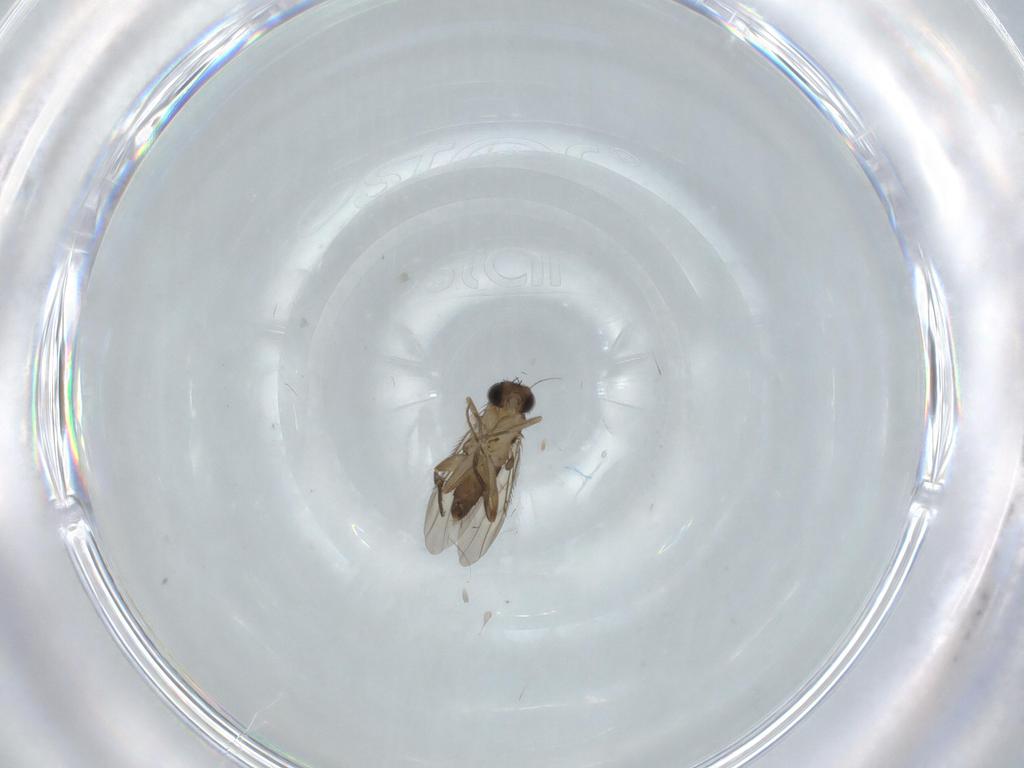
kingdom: Animalia
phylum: Arthropoda
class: Insecta
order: Diptera
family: Phoridae
